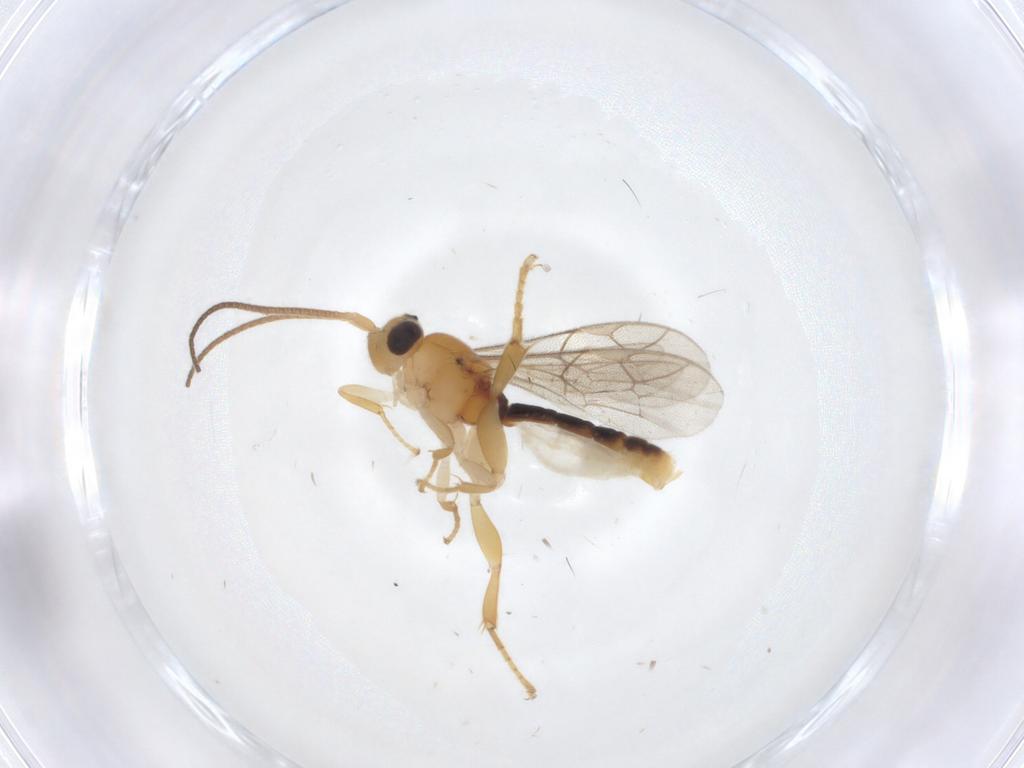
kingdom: Animalia
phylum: Arthropoda
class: Insecta
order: Hymenoptera
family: Ichneumonidae
